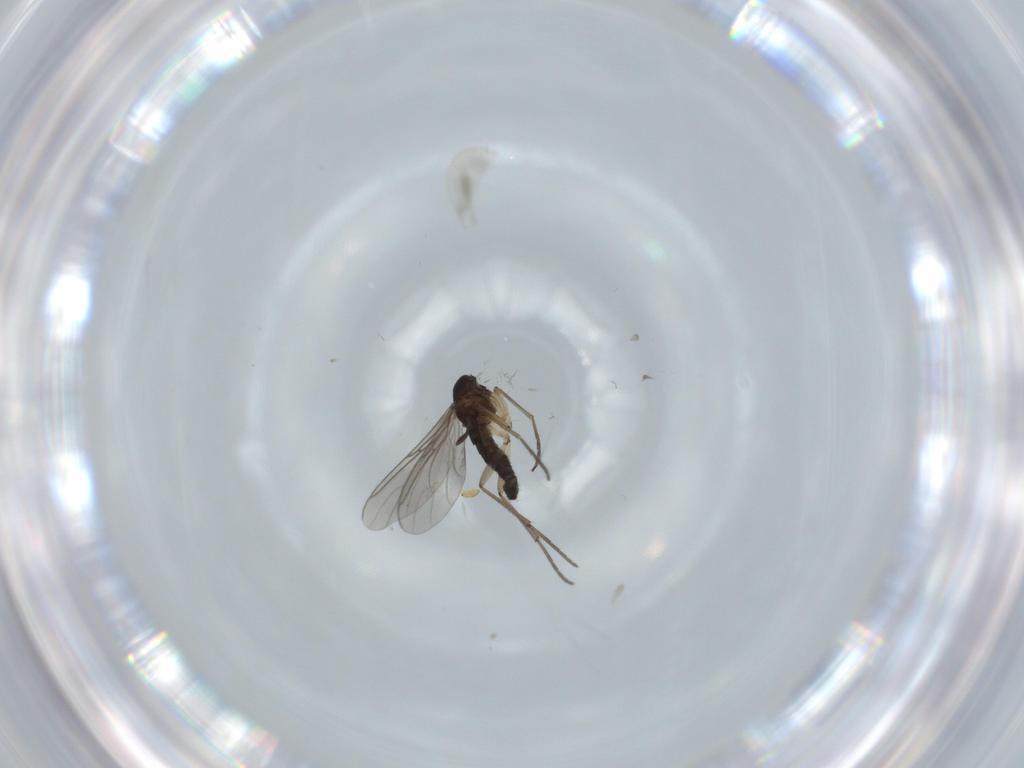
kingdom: Animalia
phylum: Arthropoda
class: Insecta
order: Diptera
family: Sciaridae
